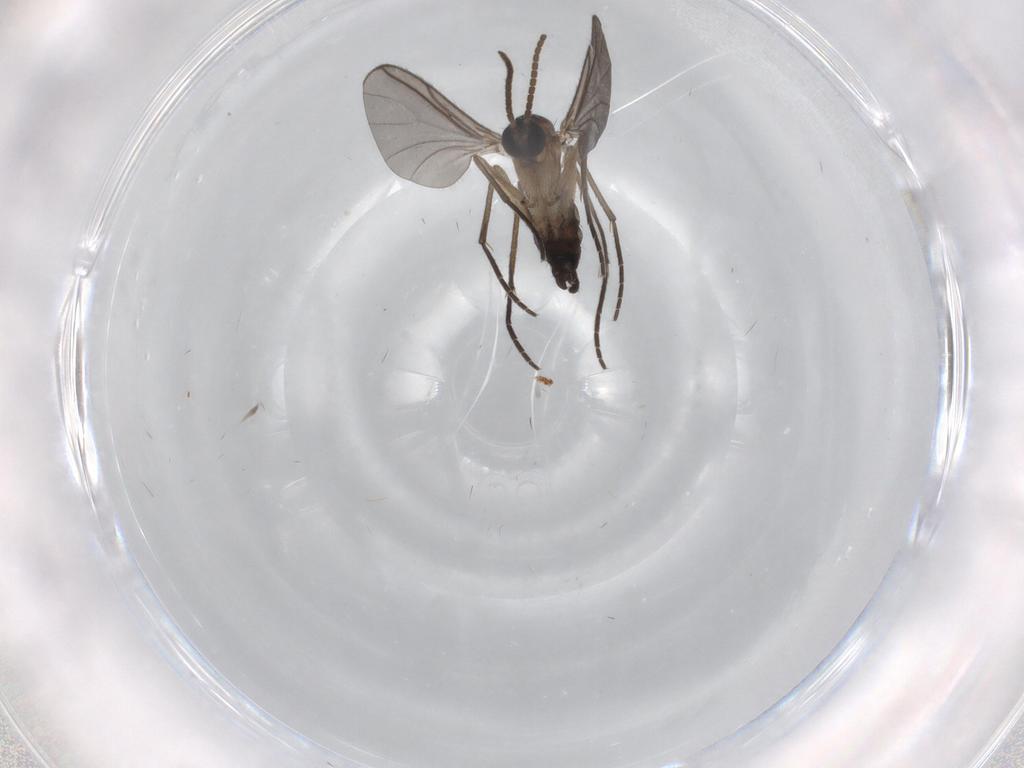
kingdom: Animalia
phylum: Arthropoda
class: Insecta
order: Diptera
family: Sciaridae
